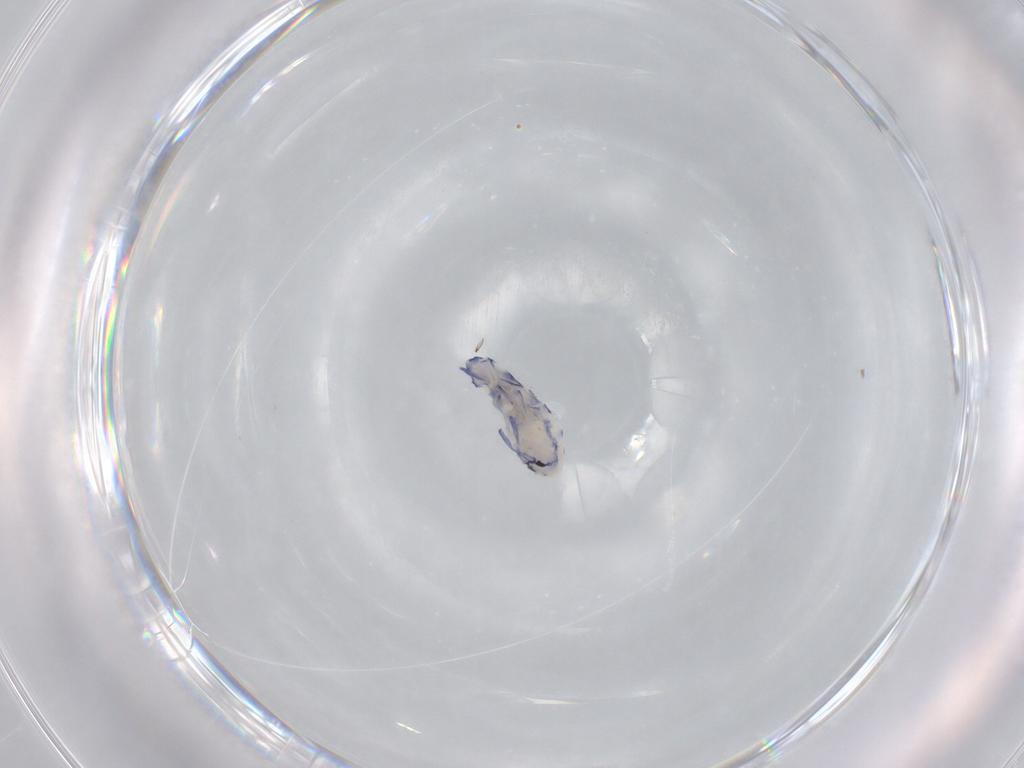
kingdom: Animalia
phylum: Arthropoda
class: Collembola
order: Entomobryomorpha
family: Entomobryidae
